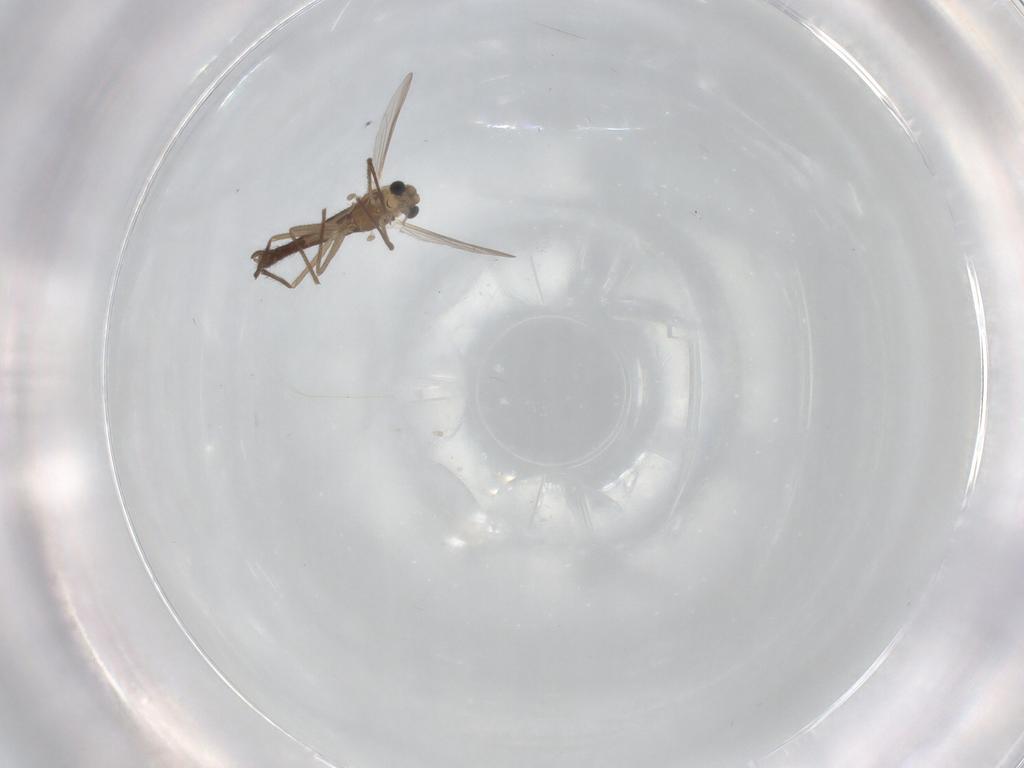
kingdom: Animalia
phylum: Arthropoda
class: Insecta
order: Diptera
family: Chironomidae
